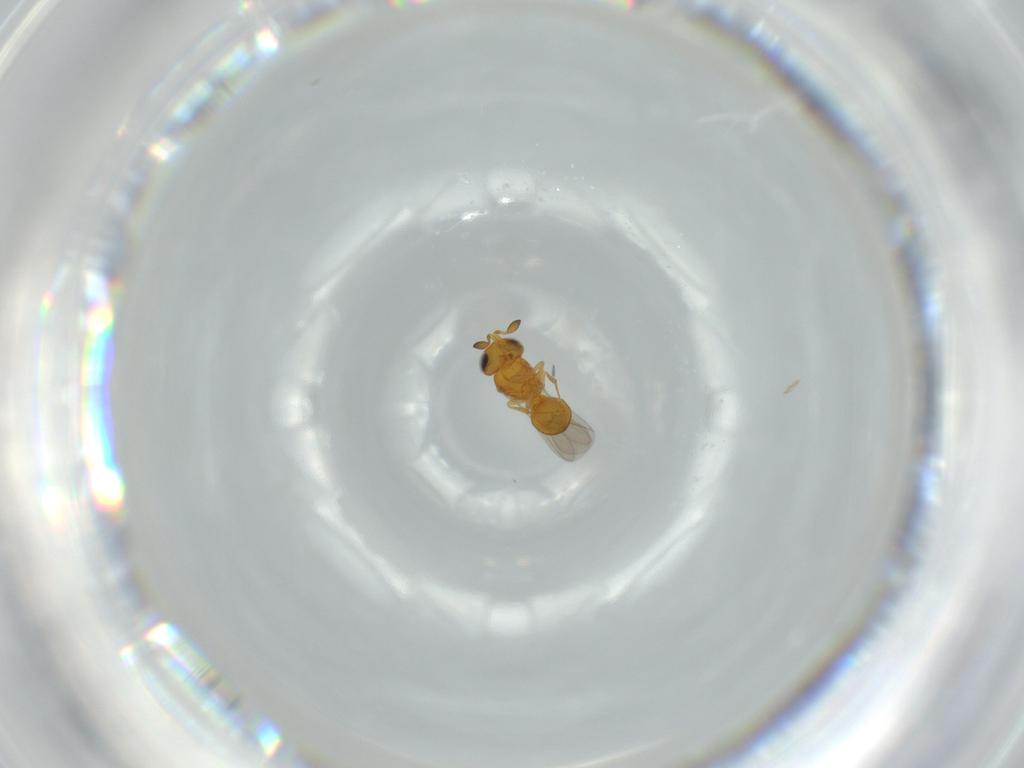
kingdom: Animalia
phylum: Arthropoda
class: Insecta
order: Hymenoptera
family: Scelionidae
